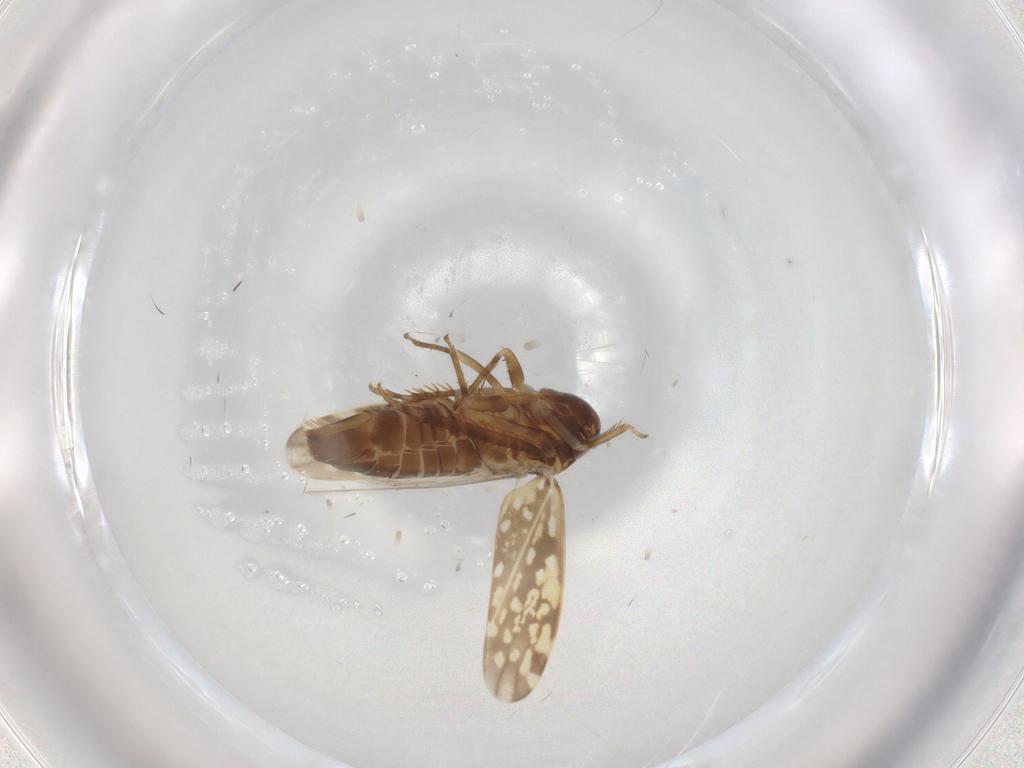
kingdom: Animalia
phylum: Arthropoda
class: Insecta
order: Hemiptera
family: Cicadellidae
